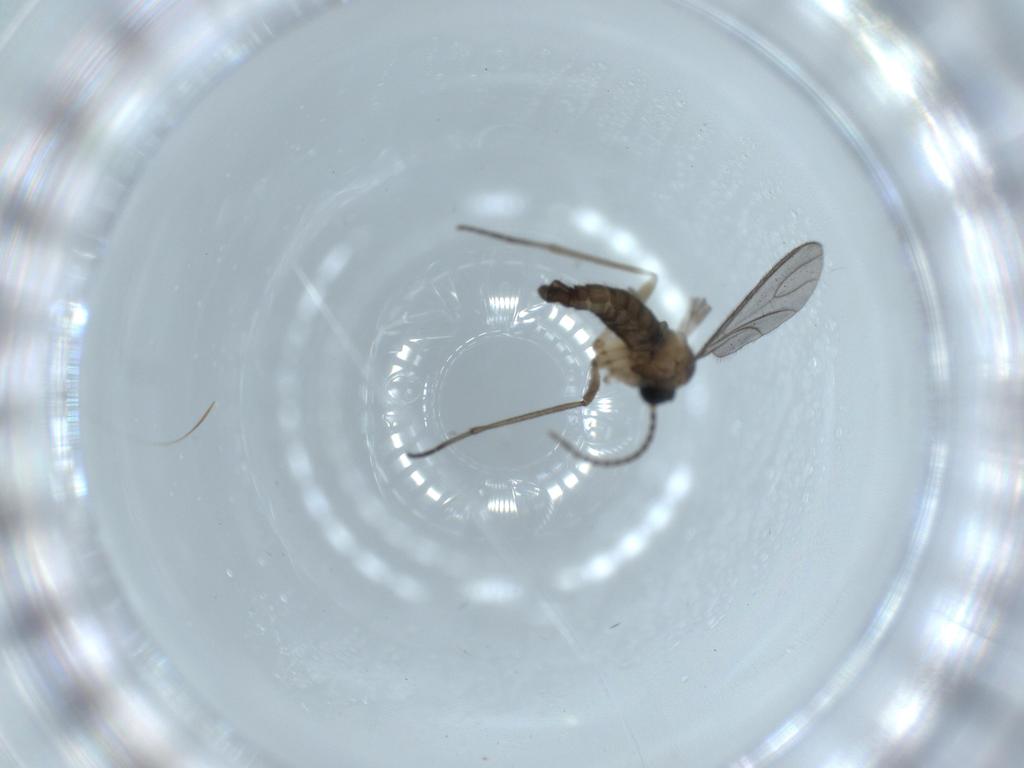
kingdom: Animalia
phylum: Arthropoda
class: Insecta
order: Diptera
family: Sciaridae
